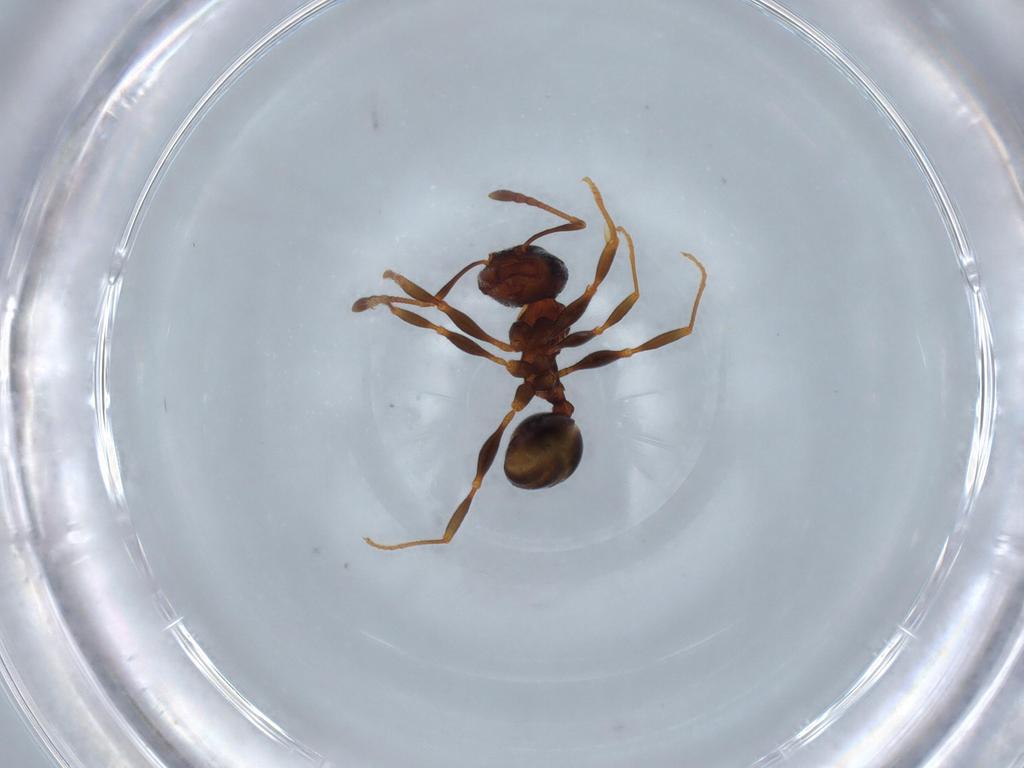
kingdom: Animalia
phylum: Arthropoda
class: Insecta
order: Hymenoptera
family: Formicidae
